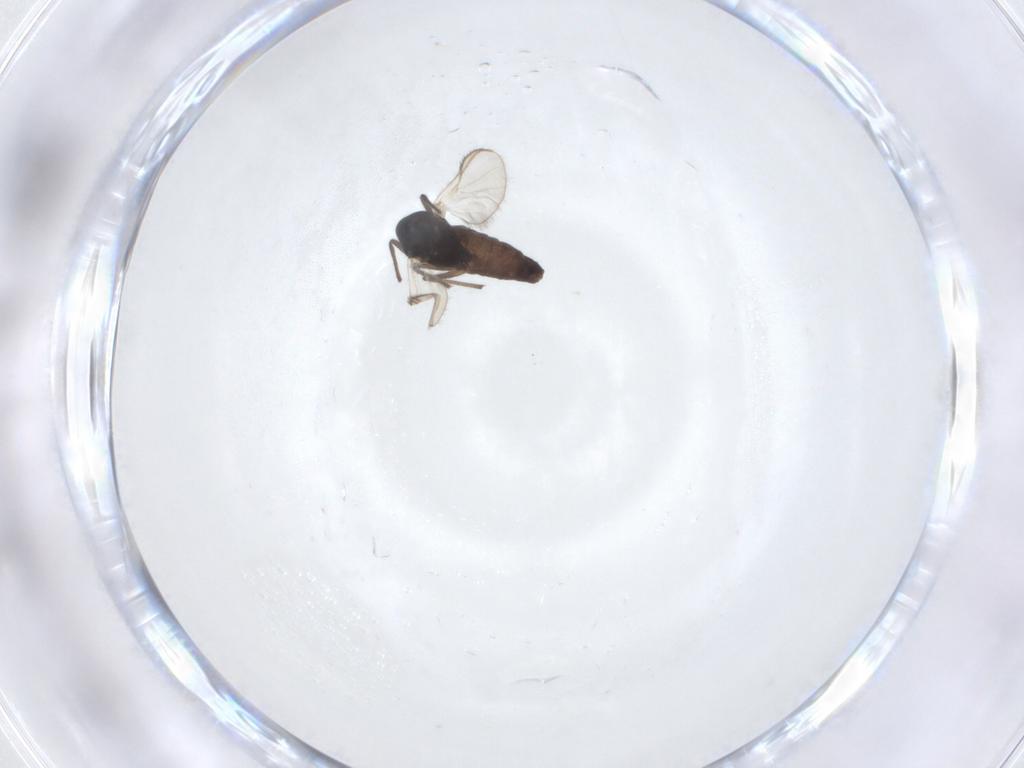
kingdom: Animalia
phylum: Arthropoda
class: Insecta
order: Diptera
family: Chironomidae
